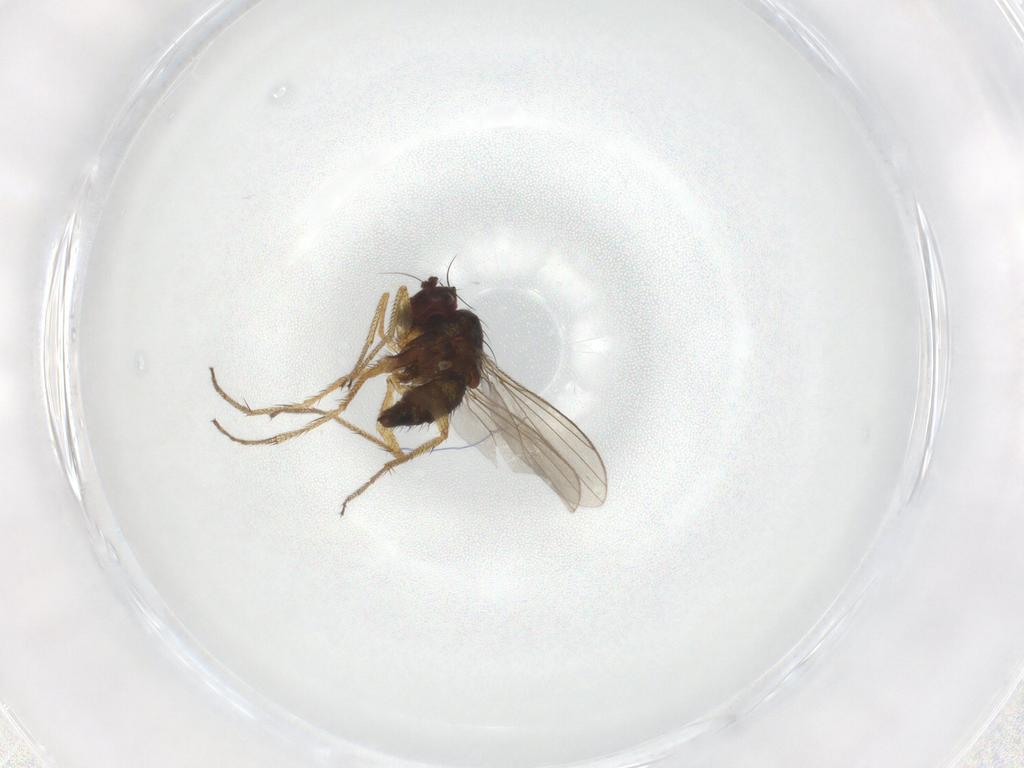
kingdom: Animalia
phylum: Arthropoda
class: Insecta
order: Diptera
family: Dolichopodidae
